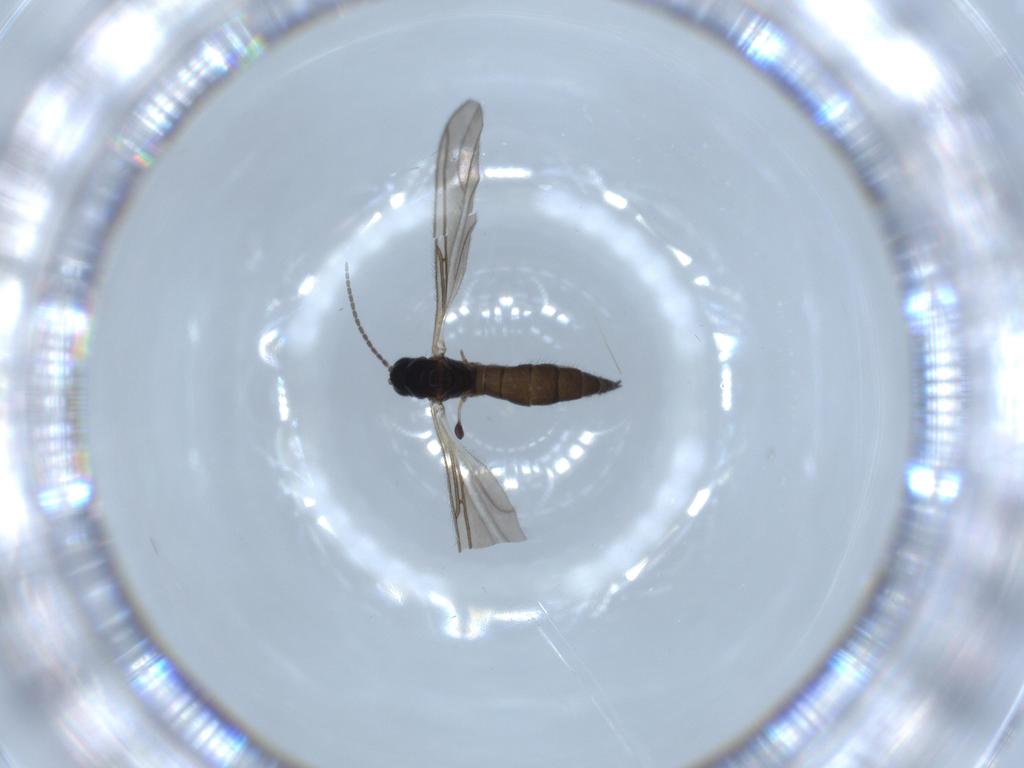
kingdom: Animalia
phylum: Arthropoda
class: Insecta
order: Diptera
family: Sciaridae
